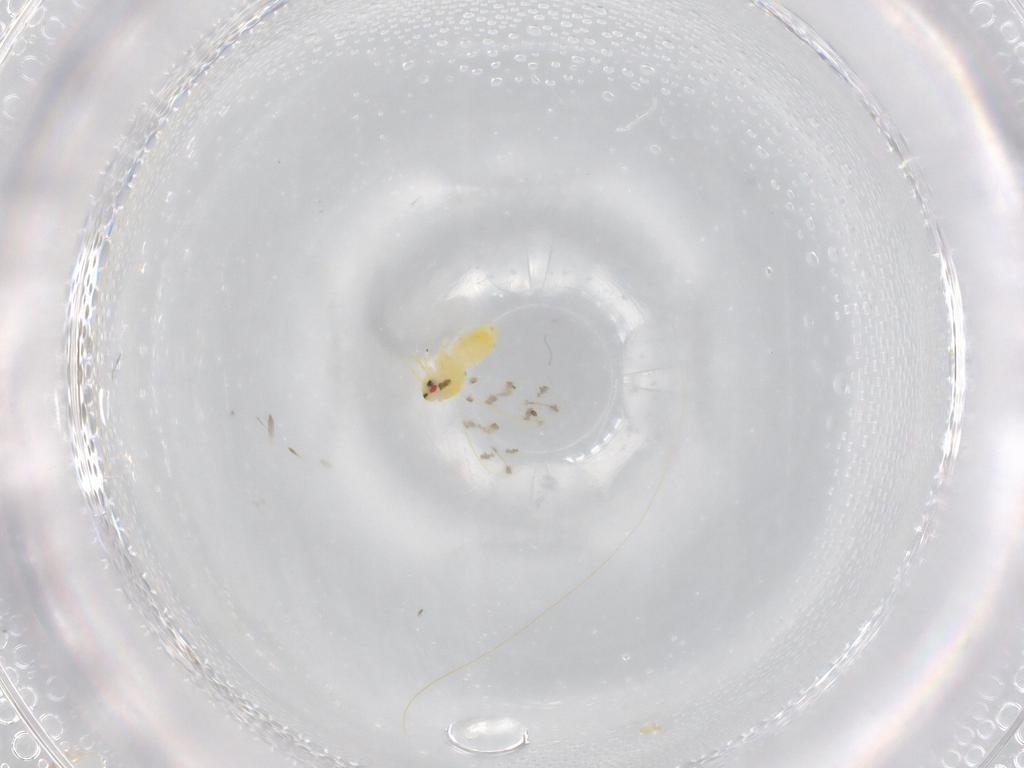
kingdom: Animalia
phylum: Arthropoda
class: Insecta
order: Hemiptera
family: Aleyrodidae
